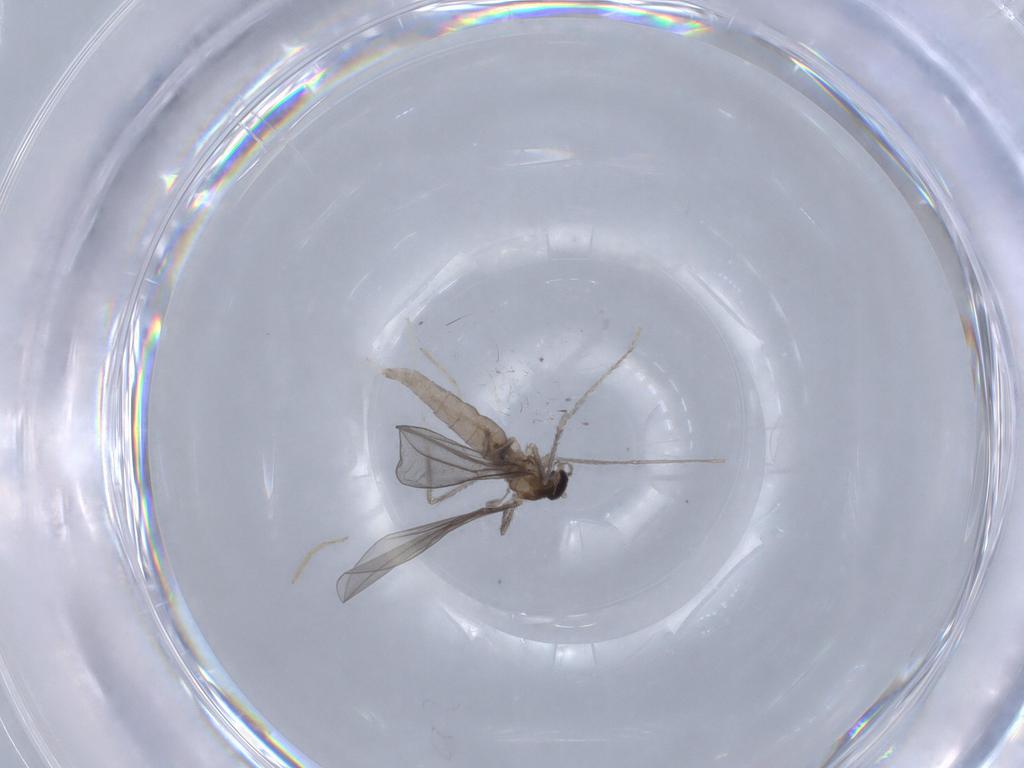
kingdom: Animalia
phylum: Arthropoda
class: Insecta
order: Diptera
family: Cecidomyiidae
